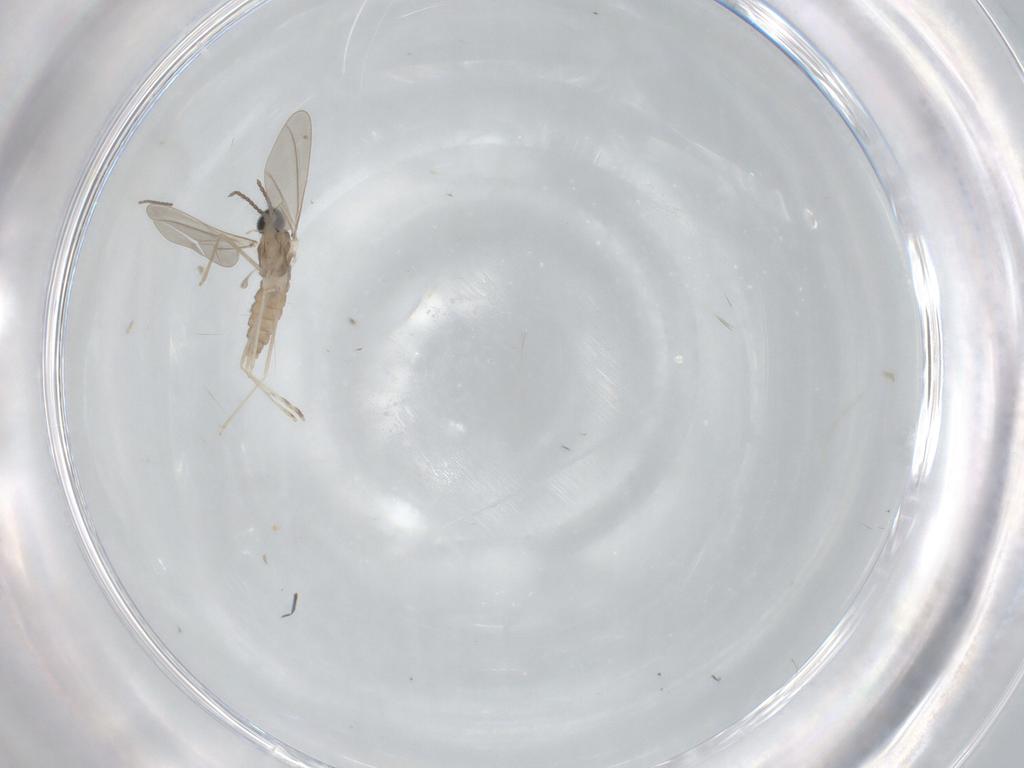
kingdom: Animalia
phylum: Arthropoda
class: Insecta
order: Diptera
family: Cecidomyiidae
